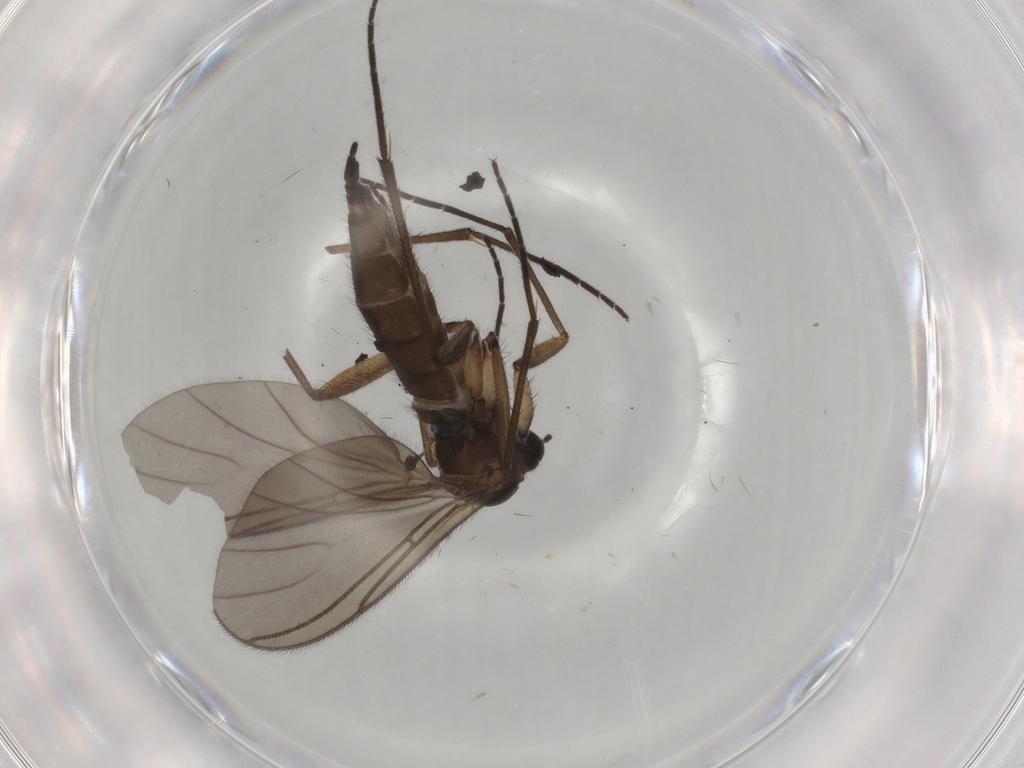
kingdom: Animalia
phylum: Arthropoda
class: Insecta
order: Diptera
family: Sciaridae
